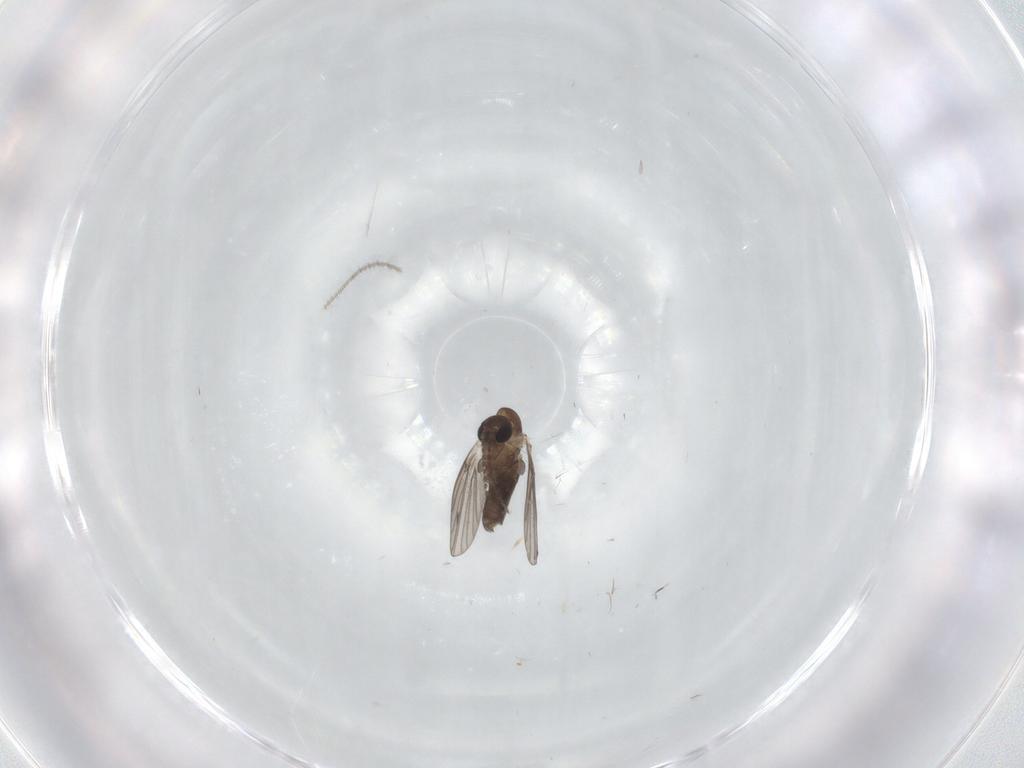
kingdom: Animalia
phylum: Arthropoda
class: Insecta
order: Diptera
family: Ceratopogonidae
